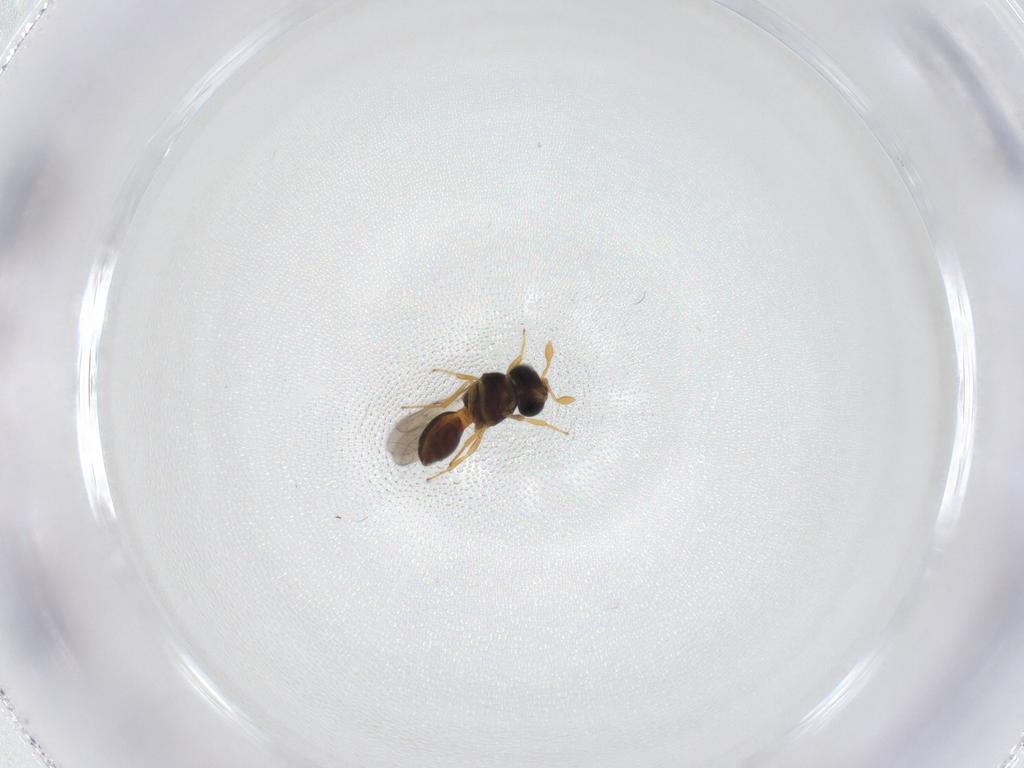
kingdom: Animalia
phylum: Arthropoda
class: Insecta
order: Hymenoptera
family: Scelionidae
